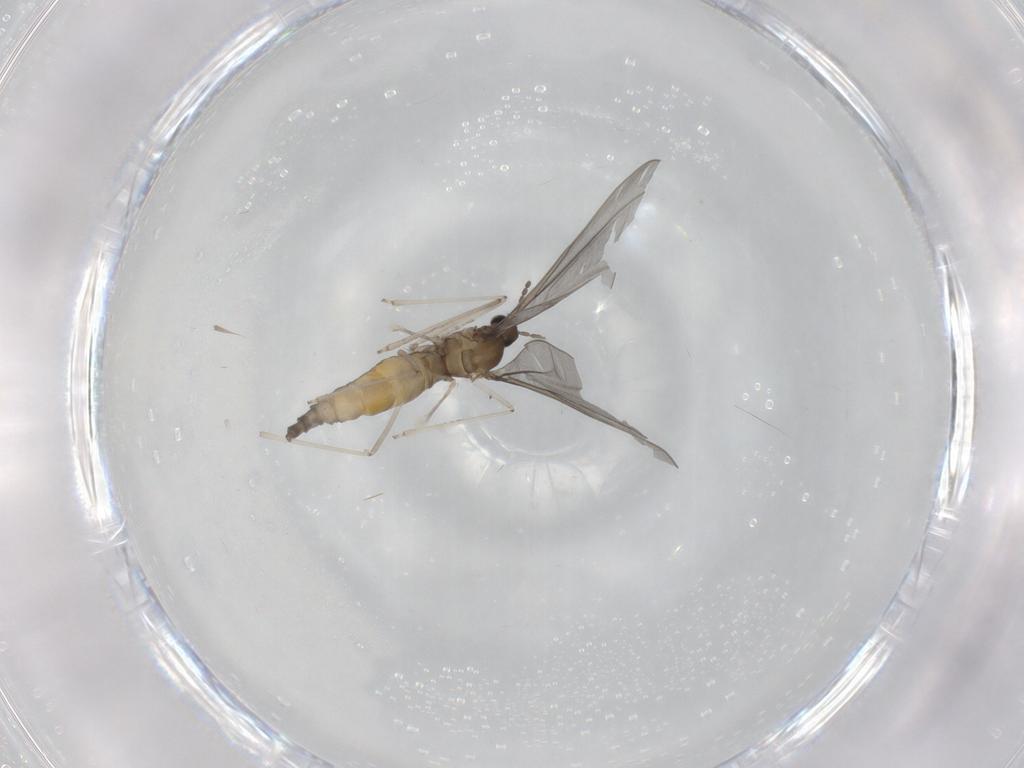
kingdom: Animalia
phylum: Arthropoda
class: Insecta
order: Diptera
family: Cecidomyiidae
